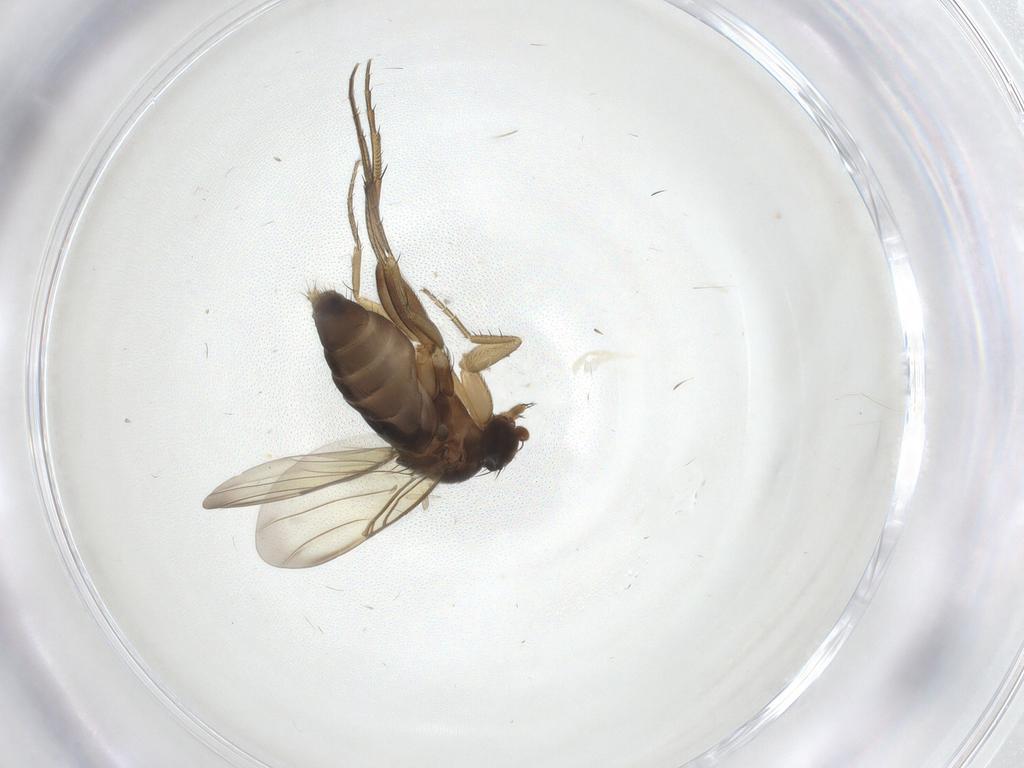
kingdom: Animalia
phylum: Arthropoda
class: Insecta
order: Diptera
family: Phoridae
